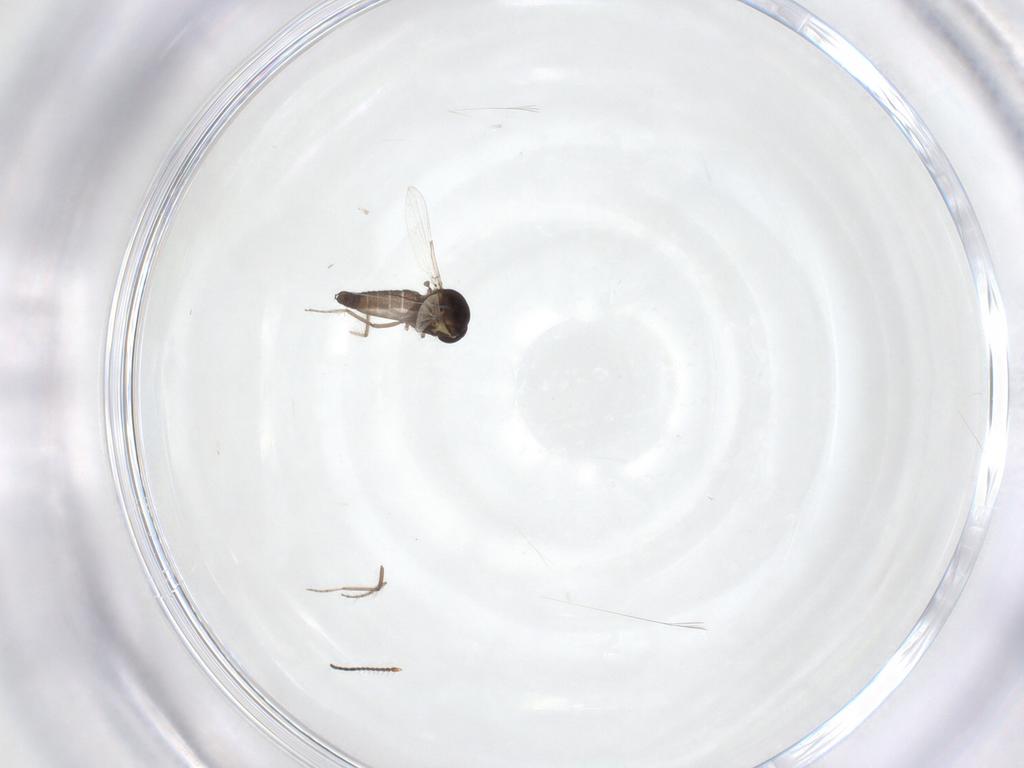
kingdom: Animalia
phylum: Arthropoda
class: Insecta
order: Diptera
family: Ceratopogonidae
